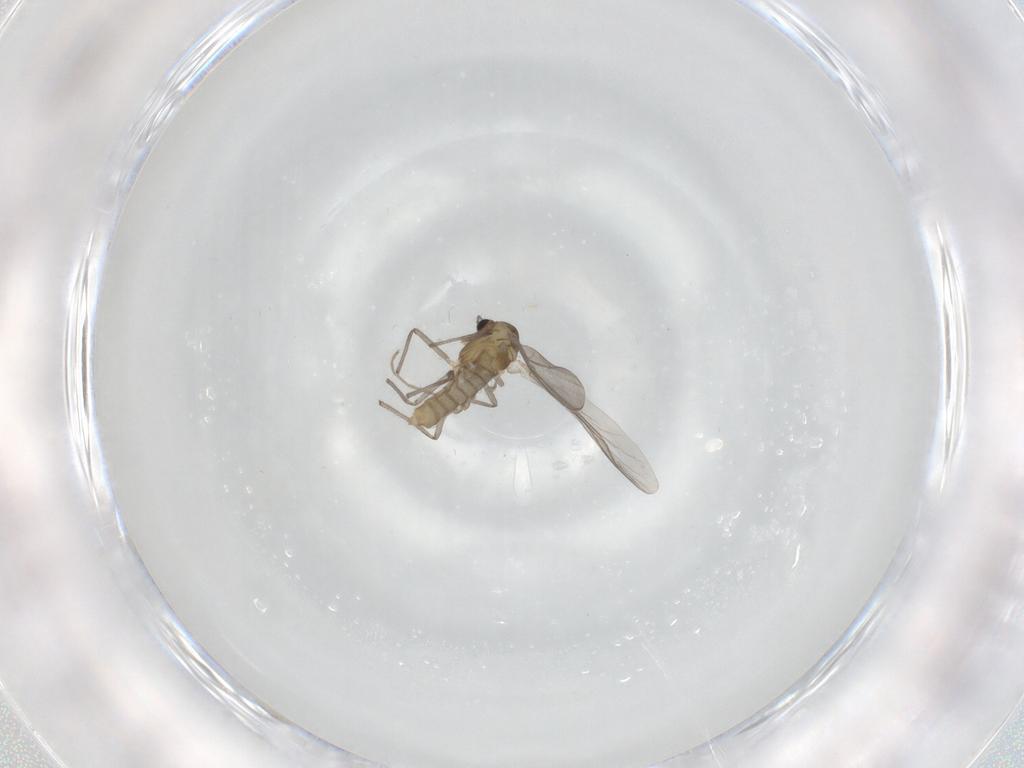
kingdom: Animalia
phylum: Arthropoda
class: Insecta
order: Diptera
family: Chironomidae
